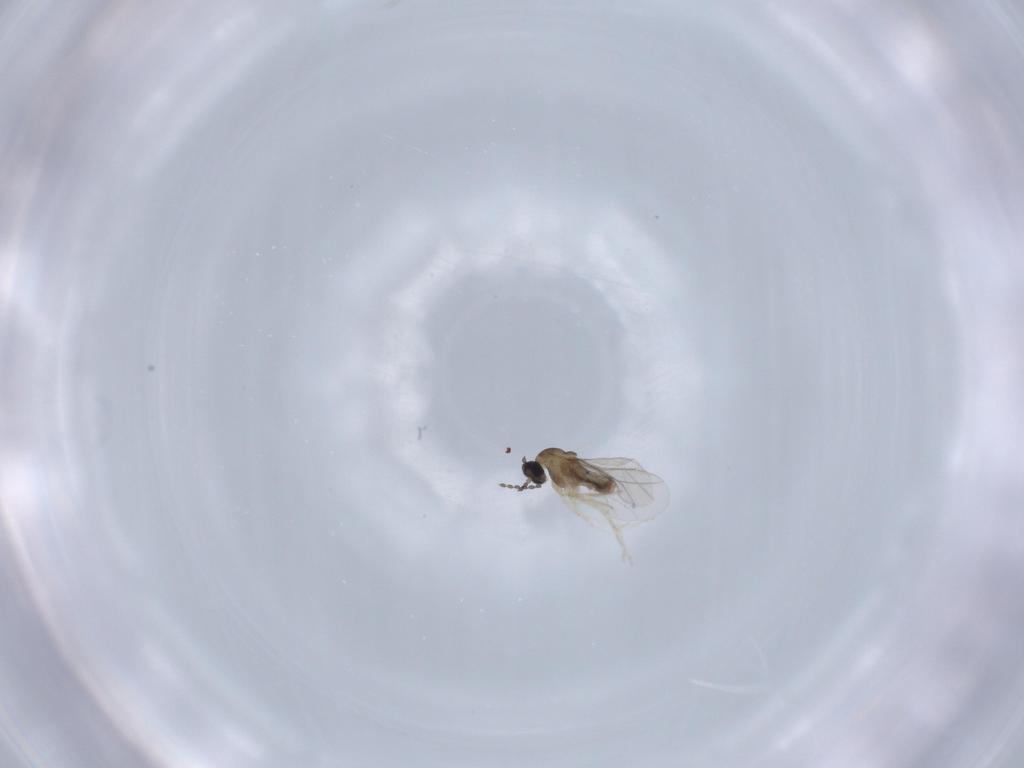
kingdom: Animalia
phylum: Arthropoda
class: Insecta
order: Diptera
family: Cecidomyiidae
